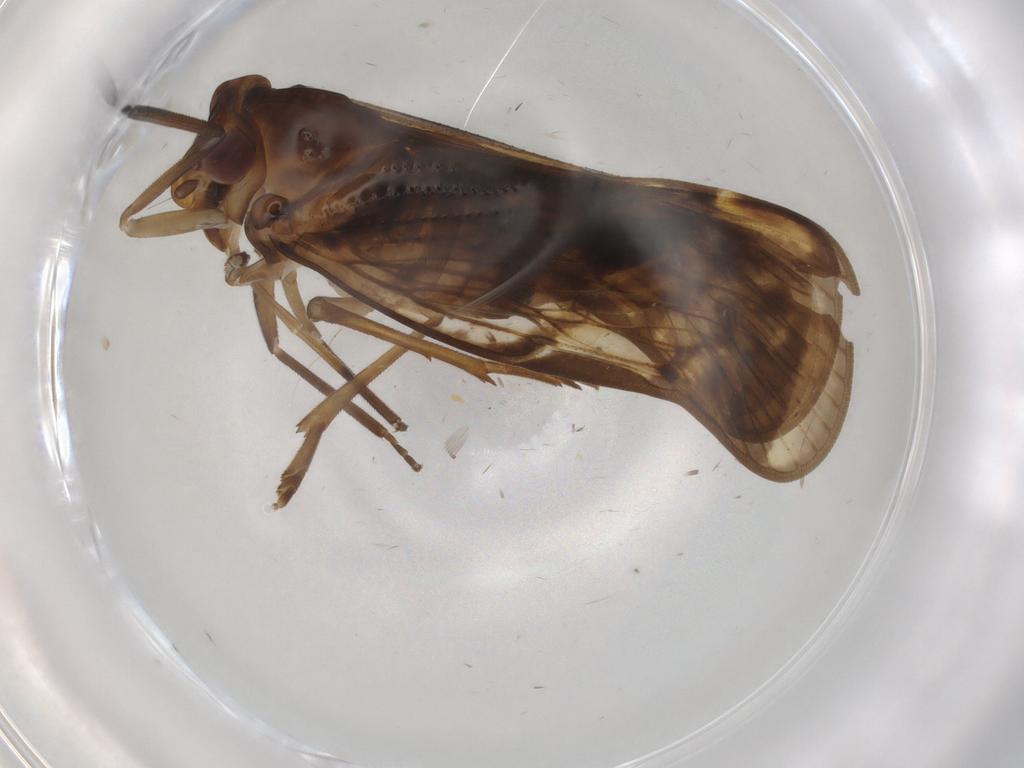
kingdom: Animalia
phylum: Arthropoda
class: Insecta
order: Hemiptera
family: Cixiidae
